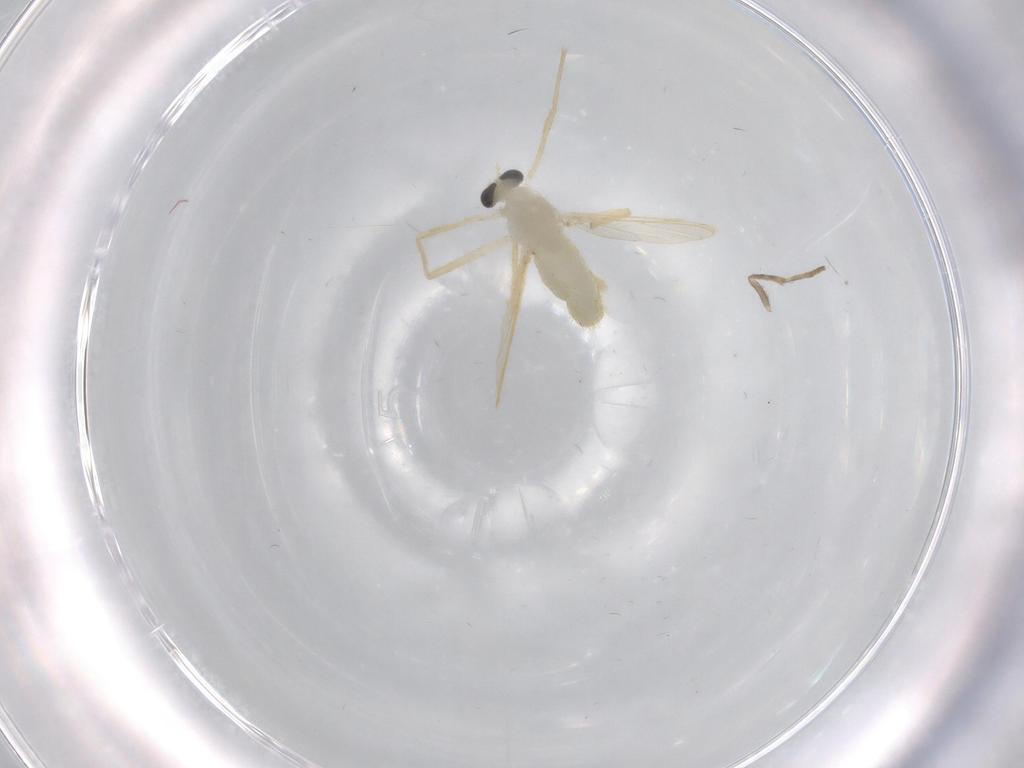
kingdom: Animalia
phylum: Arthropoda
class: Insecta
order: Diptera
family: Chironomidae
